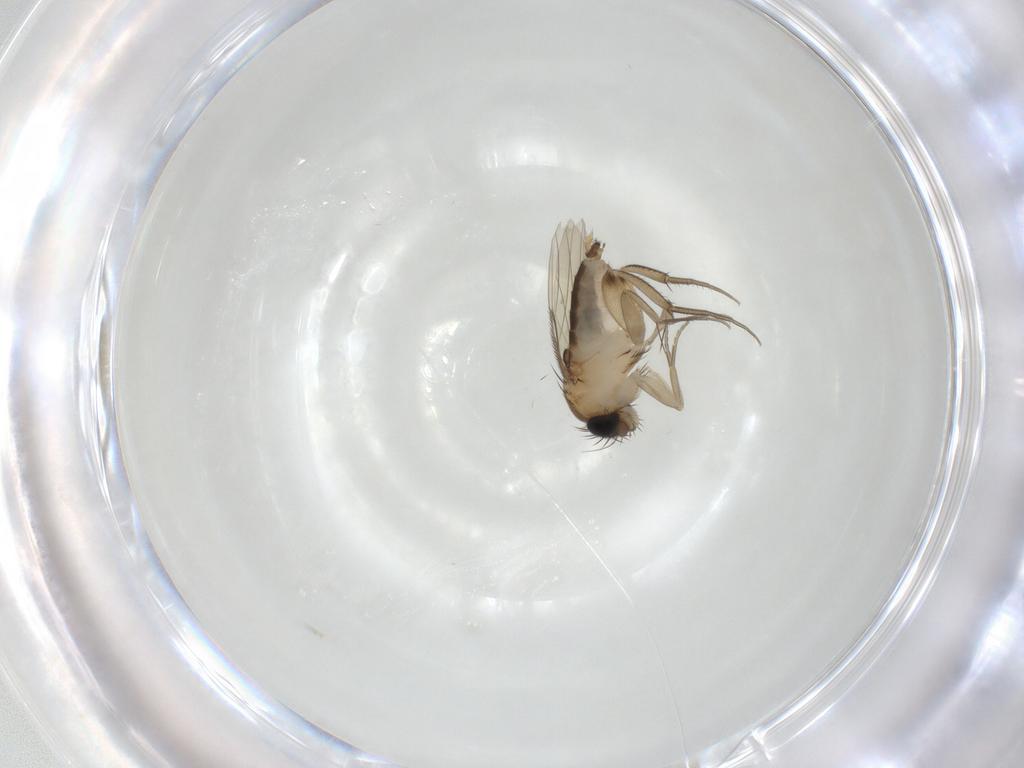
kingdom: Animalia
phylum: Arthropoda
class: Insecta
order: Diptera
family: Phoridae
